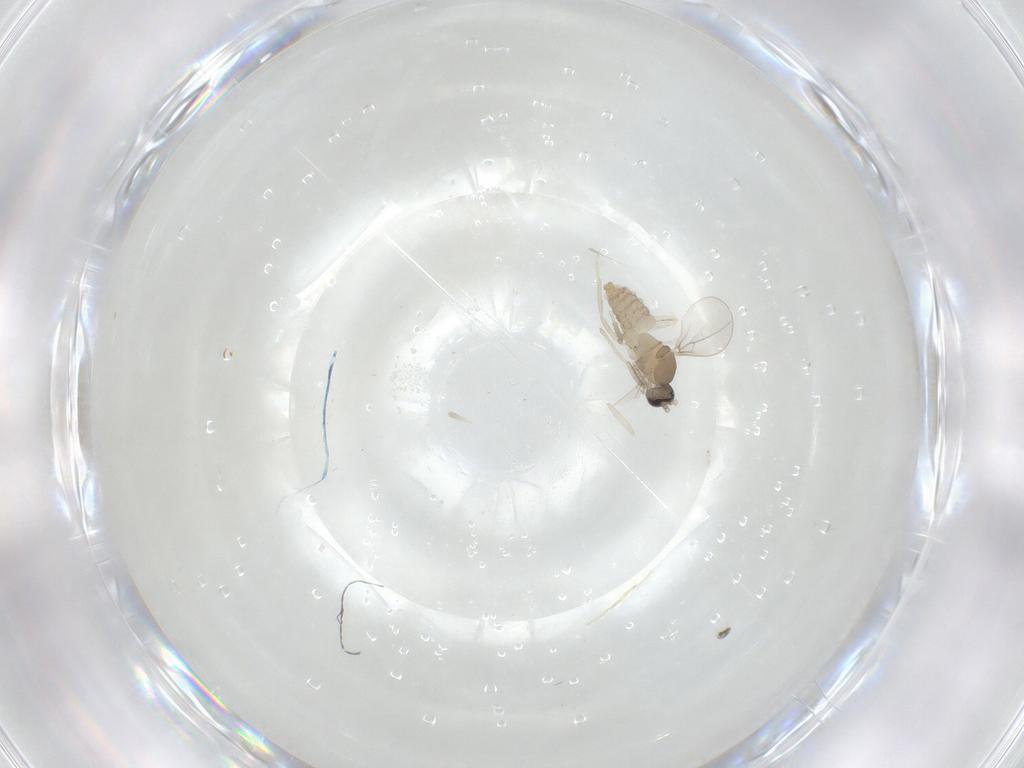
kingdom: Animalia
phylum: Arthropoda
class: Insecta
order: Diptera
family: Cecidomyiidae
